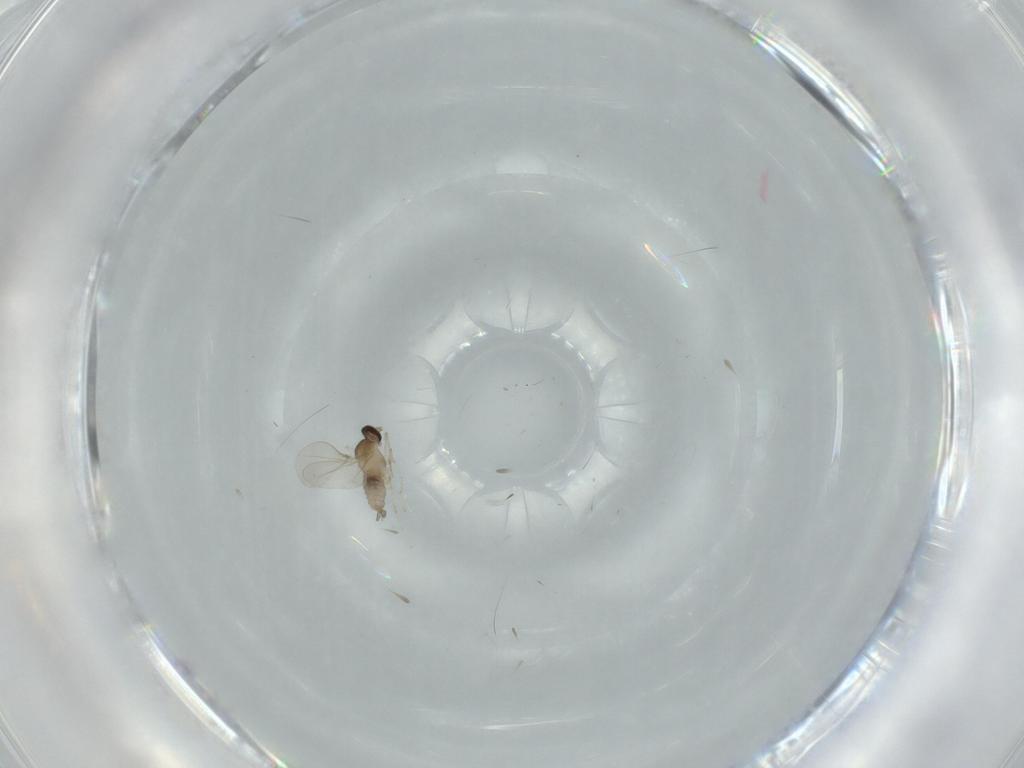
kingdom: Animalia
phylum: Arthropoda
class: Insecta
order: Diptera
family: Cecidomyiidae
